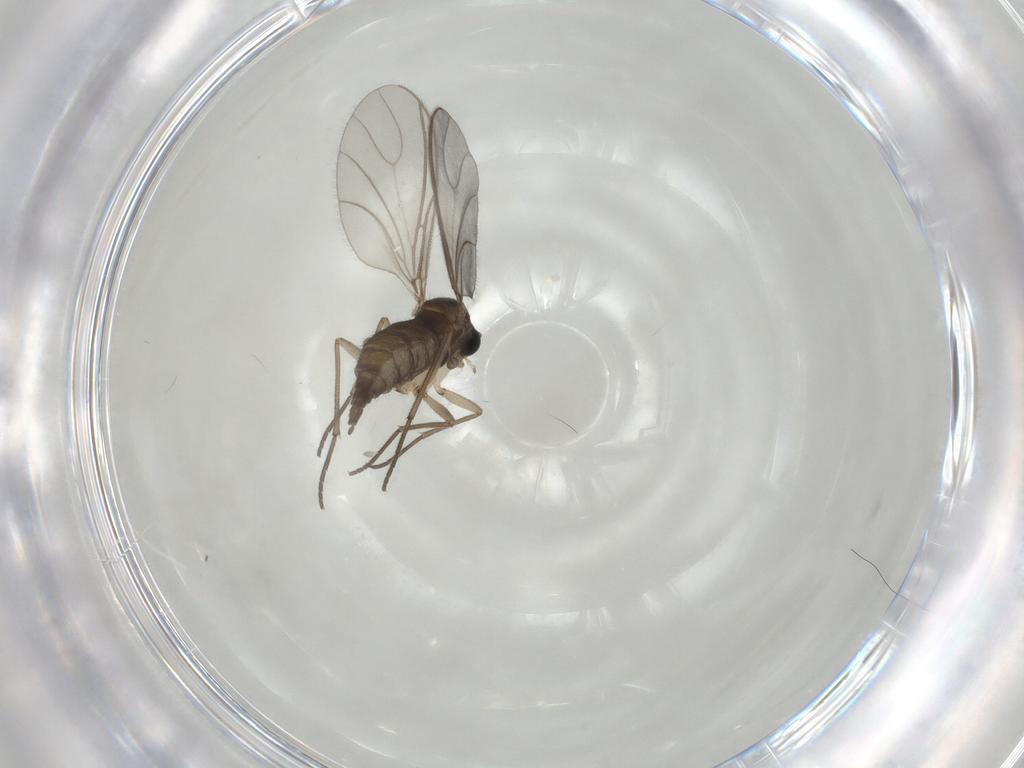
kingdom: Animalia
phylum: Arthropoda
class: Insecta
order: Diptera
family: Sciaridae
